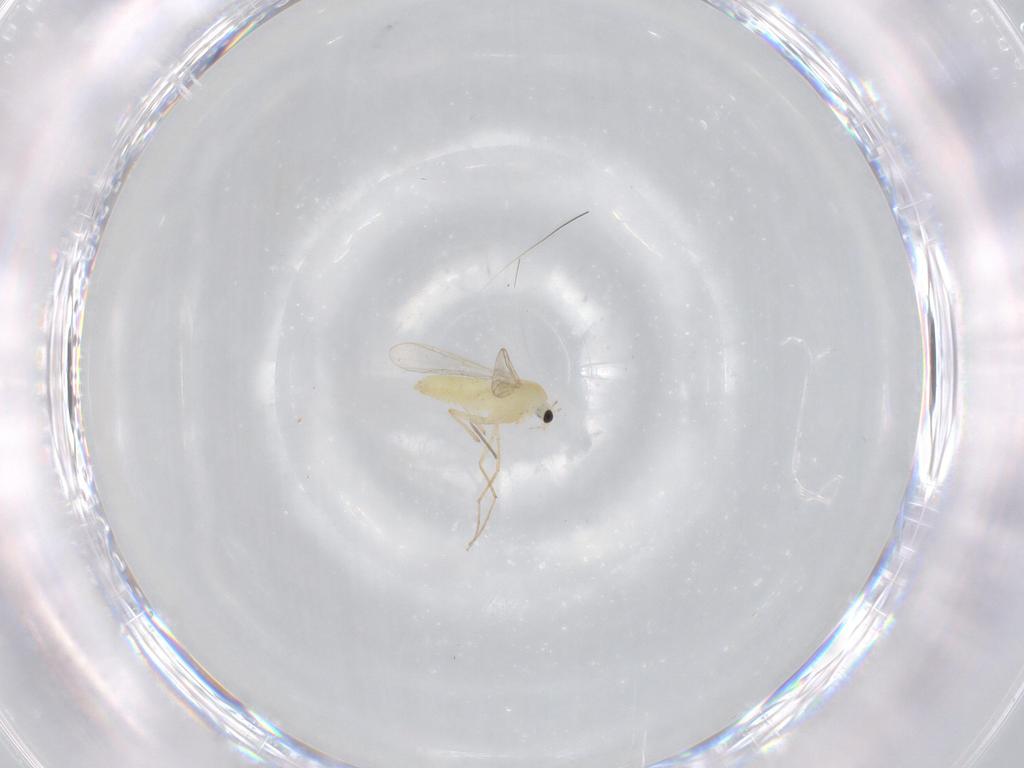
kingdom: Animalia
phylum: Arthropoda
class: Insecta
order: Diptera
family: Chironomidae
